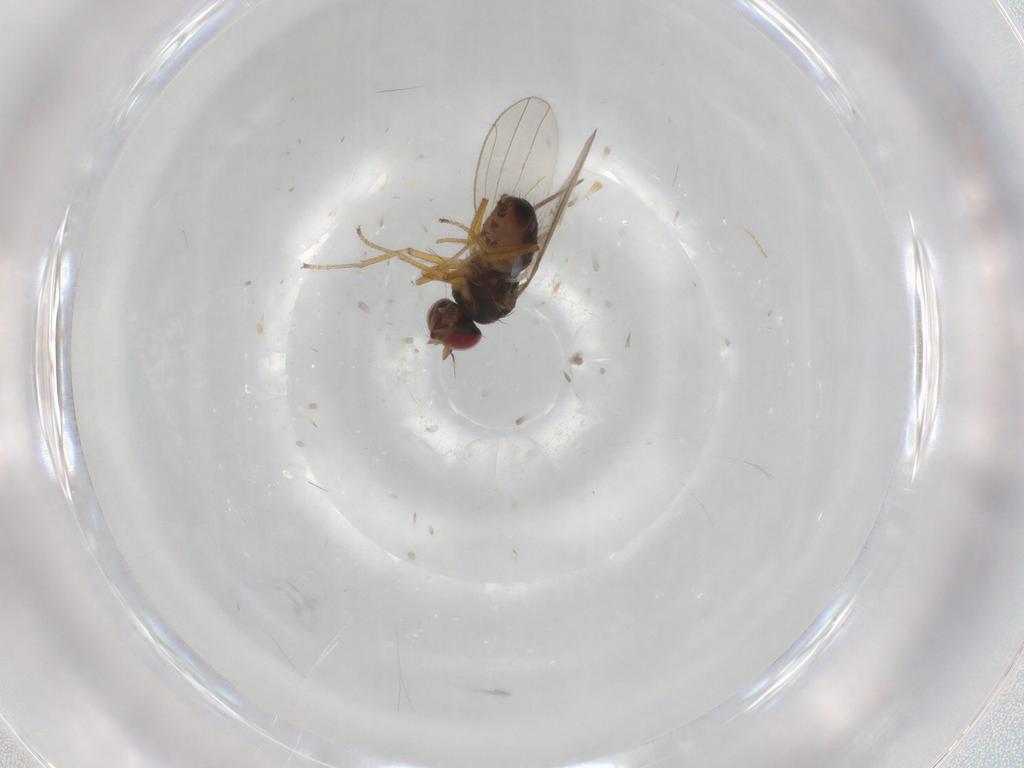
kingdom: Animalia
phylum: Arthropoda
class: Insecta
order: Diptera
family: Ephydridae
